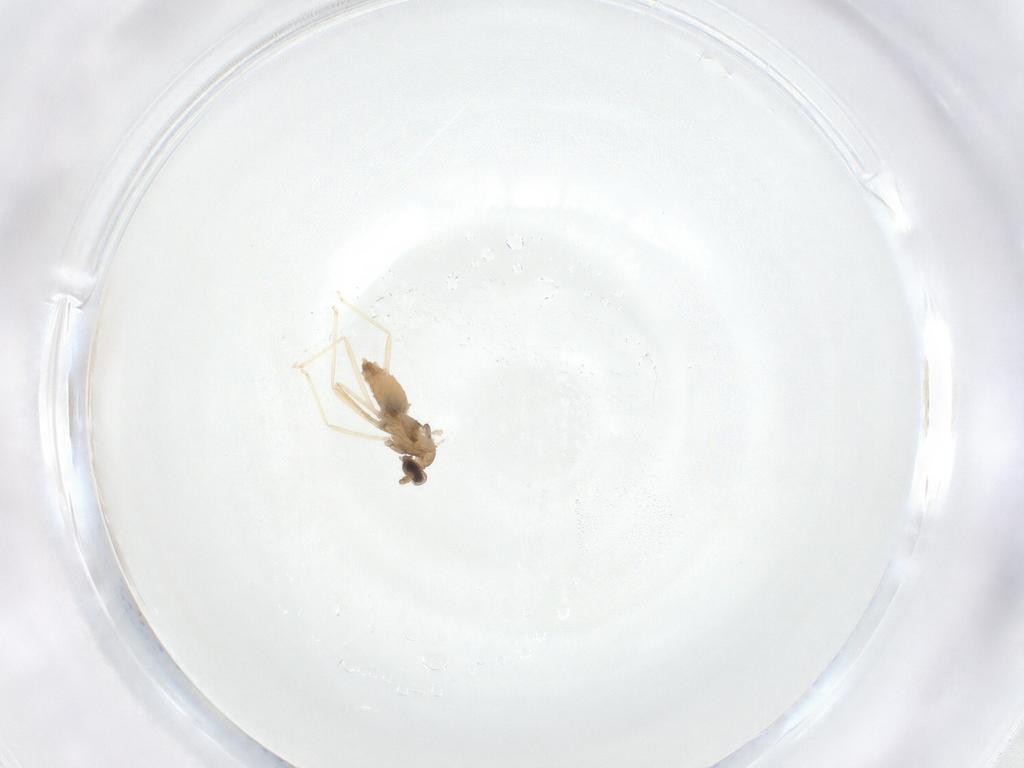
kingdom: Animalia
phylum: Arthropoda
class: Insecta
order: Diptera
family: Cecidomyiidae
